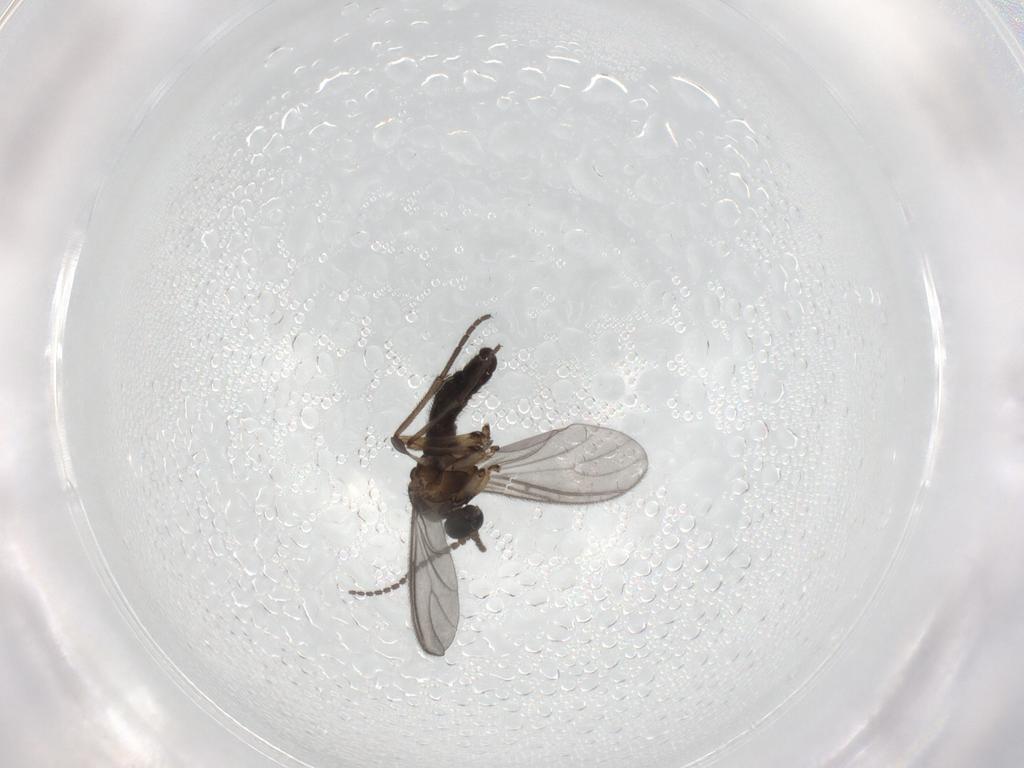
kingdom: Animalia
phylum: Arthropoda
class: Insecta
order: Diptera
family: Sciaridae
